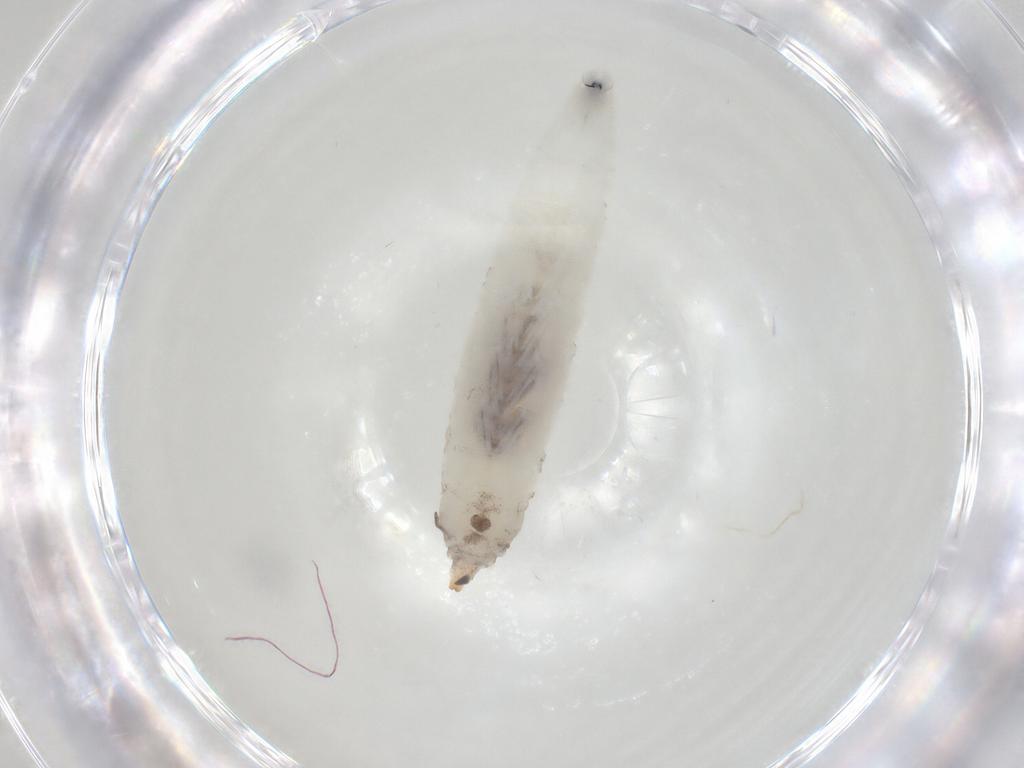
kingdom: Animalia
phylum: Arthropoda
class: Insecta
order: Diptera
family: Drosophilidae
